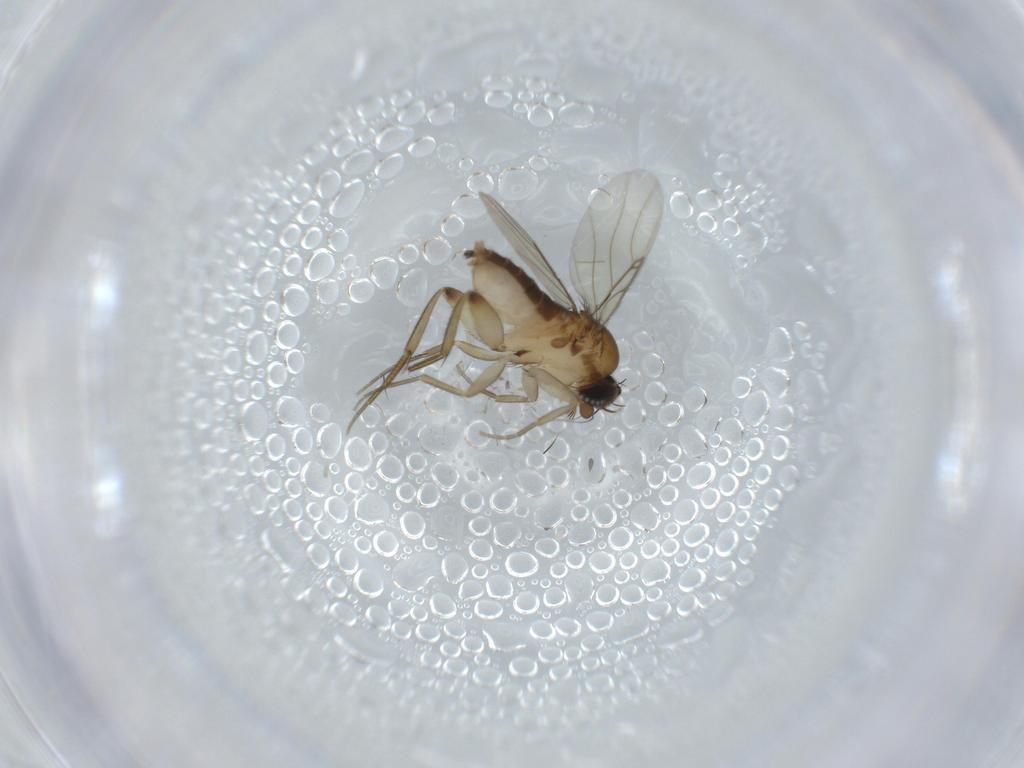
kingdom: Animalia
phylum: Arthropoda
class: Insecta
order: Diptera
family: Phoridae
